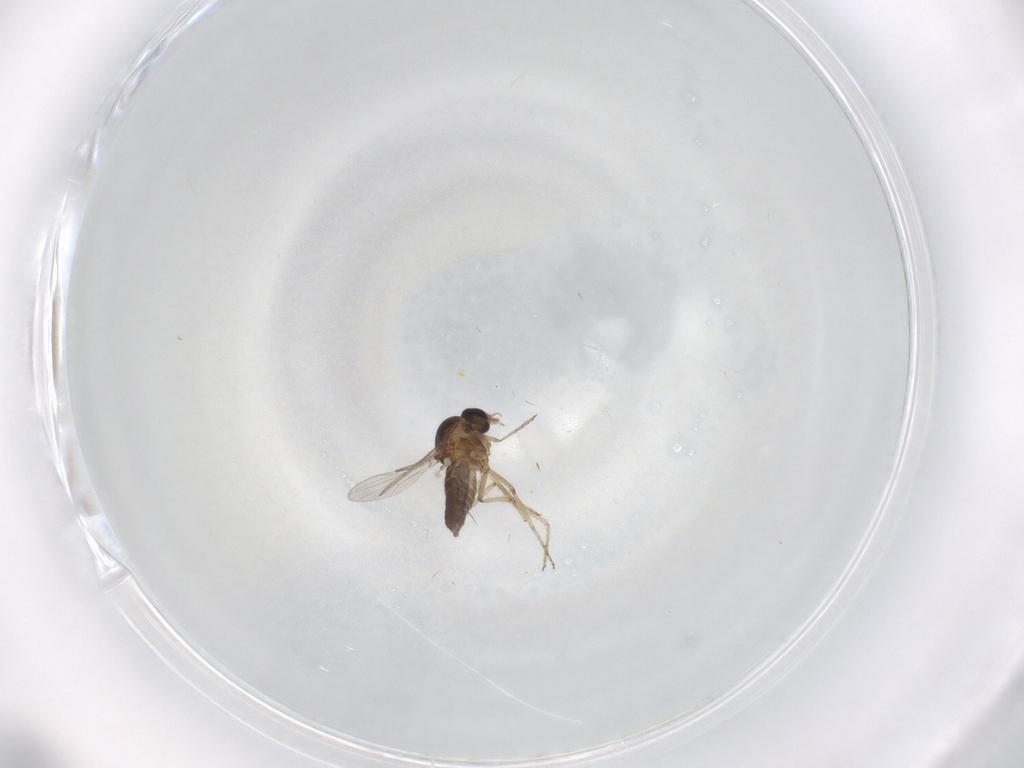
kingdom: Animalia
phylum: Arthropoda
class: Insecta
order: Diptera
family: Ceratopogonidae
